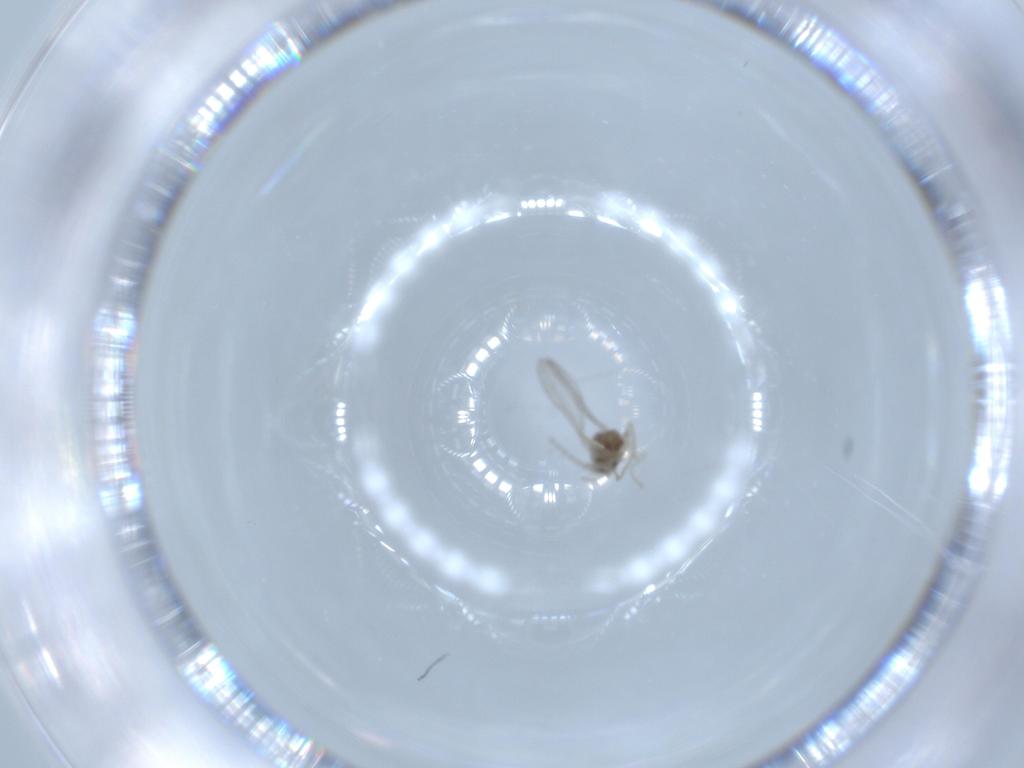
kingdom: Animalia
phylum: Arthropoda
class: Insecta
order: Diptera
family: Cecidomyiidae
